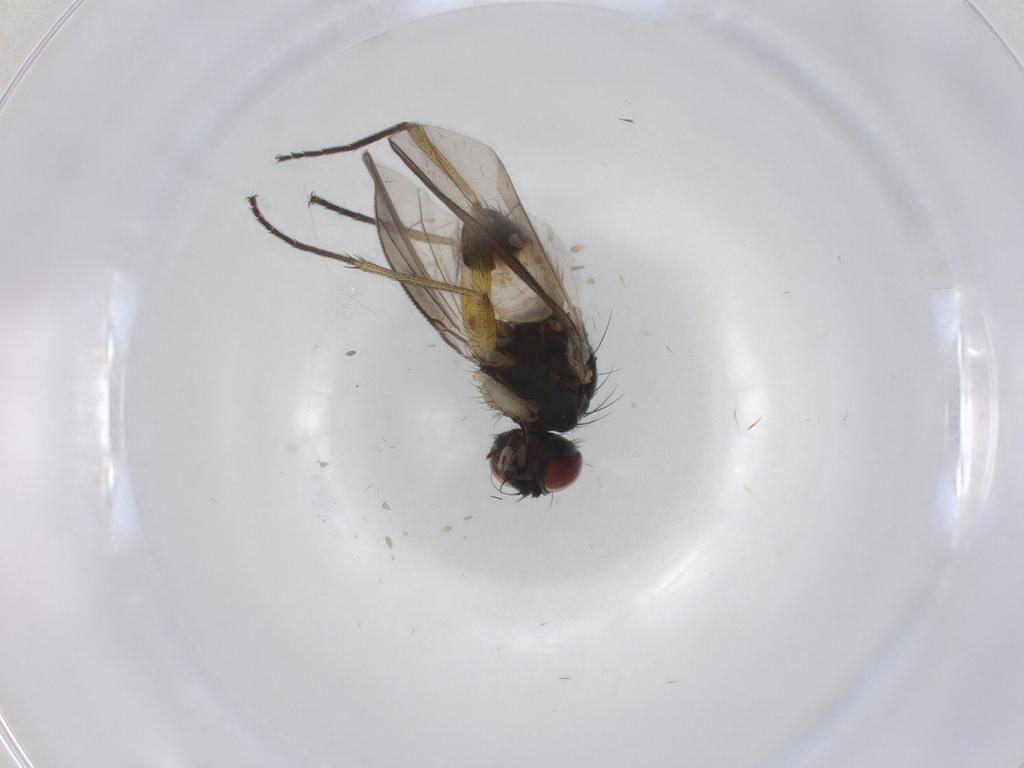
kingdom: Animalia
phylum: Arthropoda
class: Insecta
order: Diptera
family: Muscidae
